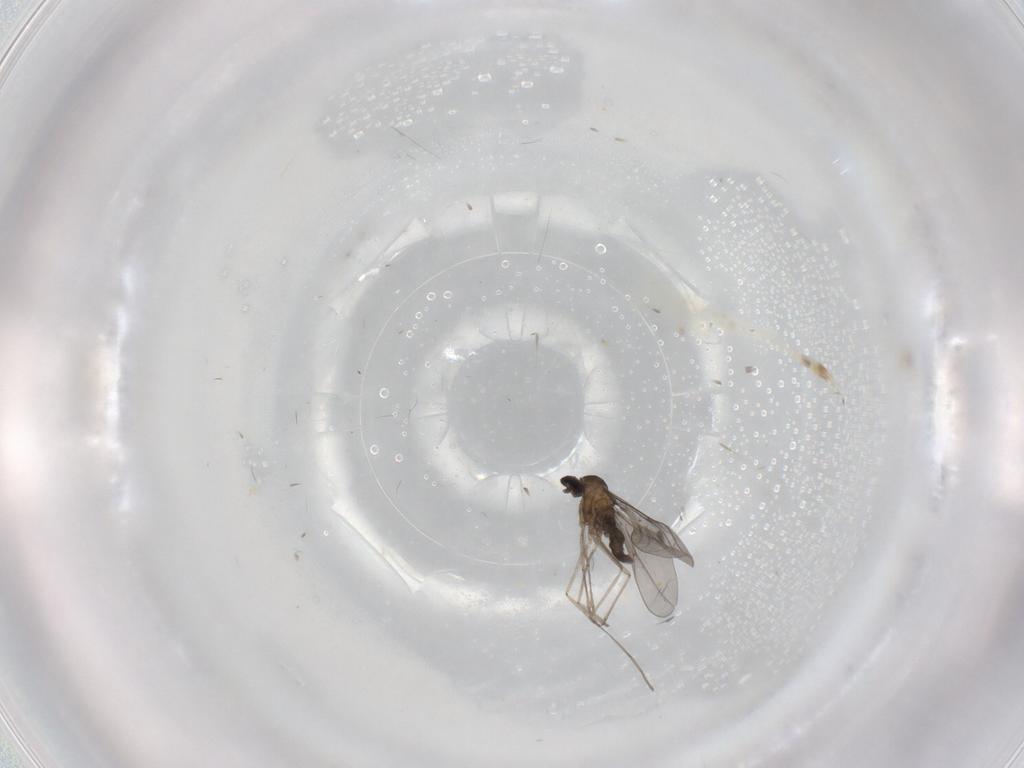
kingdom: Animalia
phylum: Arthropoda
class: Insecta
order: Diptera
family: Cecidomyiidae
